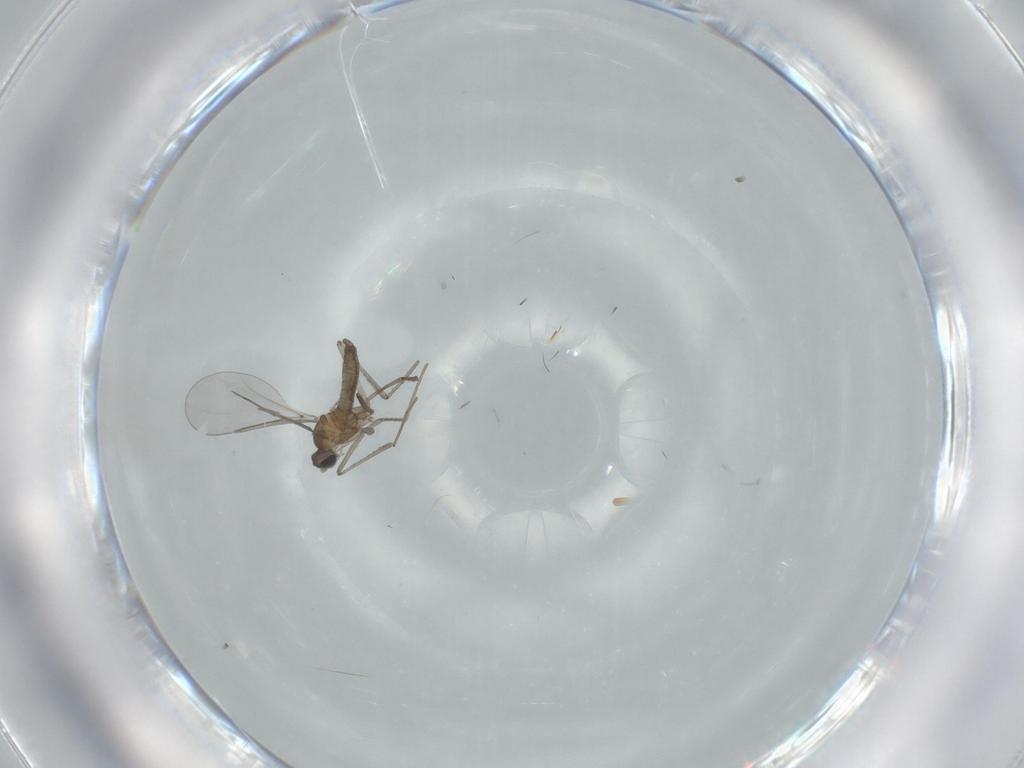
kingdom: Animalia
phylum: Arthropoda
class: Insecta
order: Diptera
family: Cecidomyiidae
